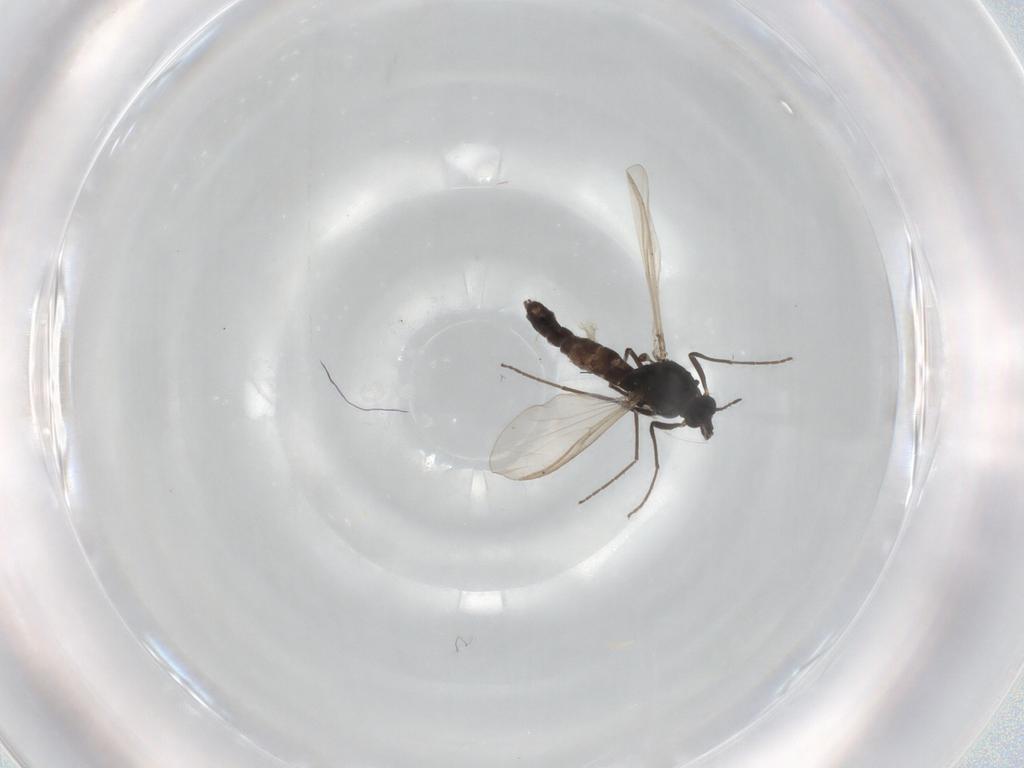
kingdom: Animalia
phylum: Arthropoda
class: Insecta
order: Diptera
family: Chironomidae
